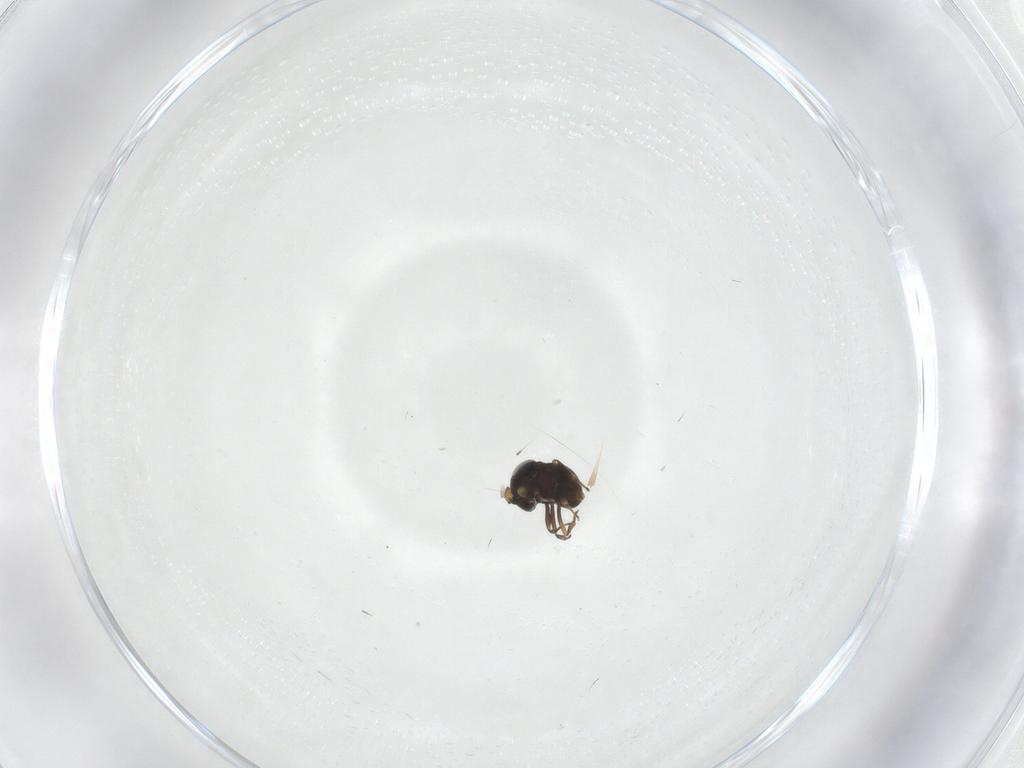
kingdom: Animalia
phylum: Arthropoda
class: Insecta
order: Hymenoptera
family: Scelionidae
